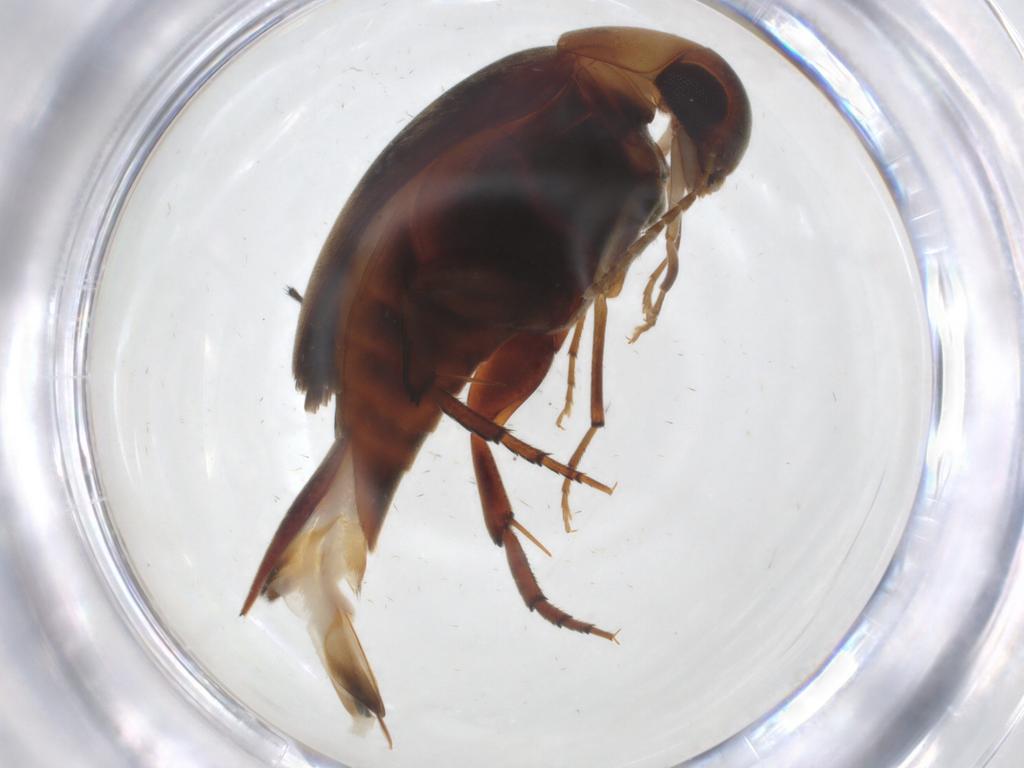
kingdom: Animalia
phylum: Arthropoda
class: Insecta
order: Coleoptera
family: Mordellidae
